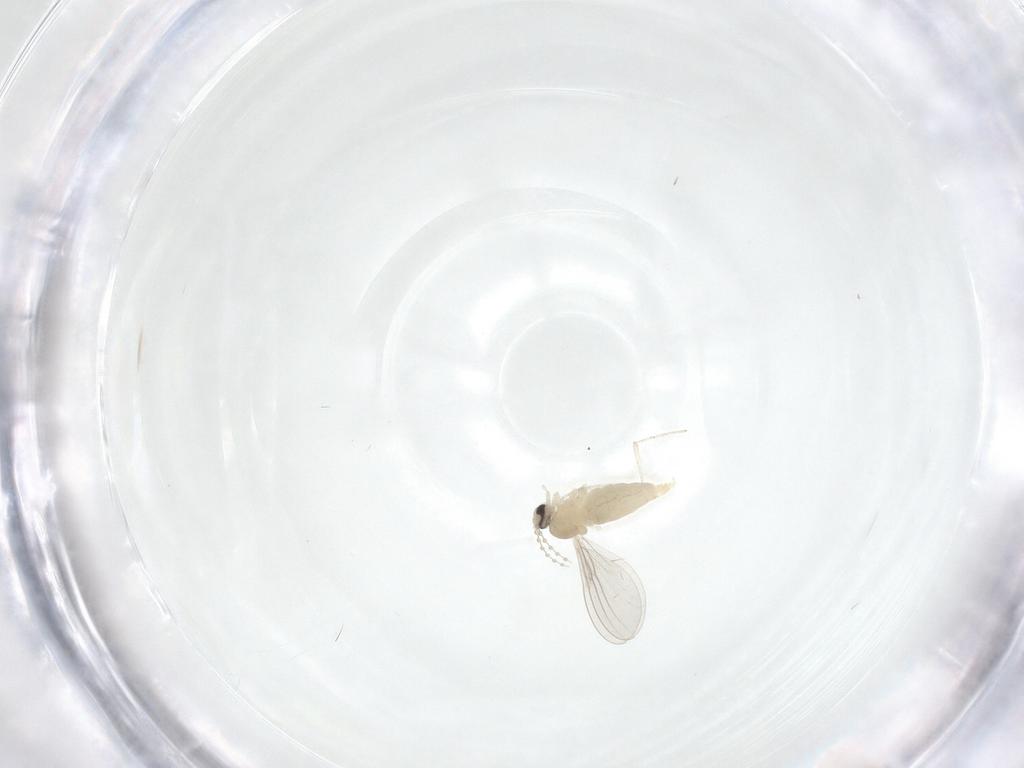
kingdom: Animalia
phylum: Arthropoda
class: Insecta
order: Diptera
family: Cecidomyiidae
